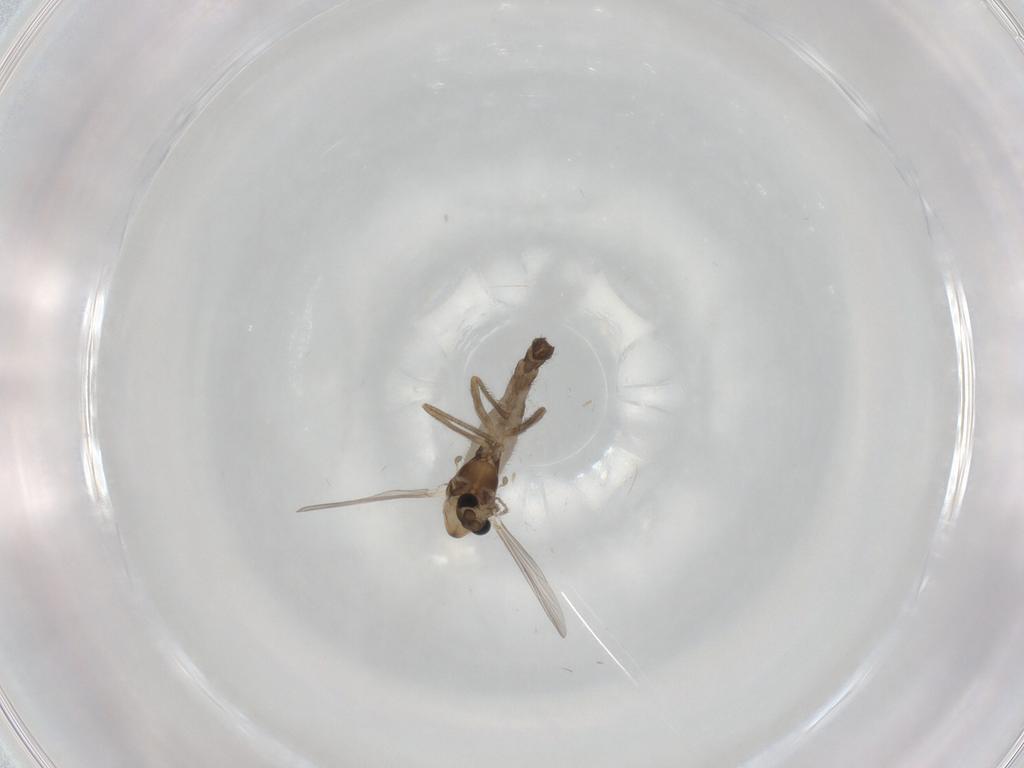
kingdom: Animalia
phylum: Arthropoda
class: Insecta
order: Diptera
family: Chironomidae
